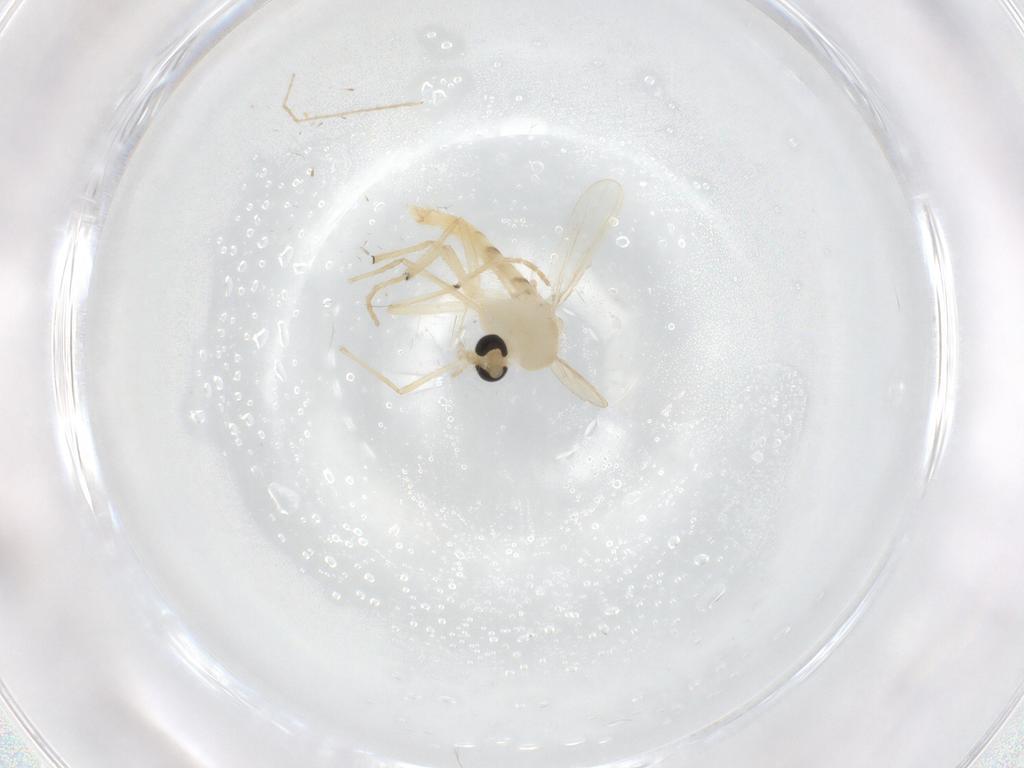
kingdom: Animalia
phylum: Arthropoda
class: Insecta
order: Diptera
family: Chironomidae
